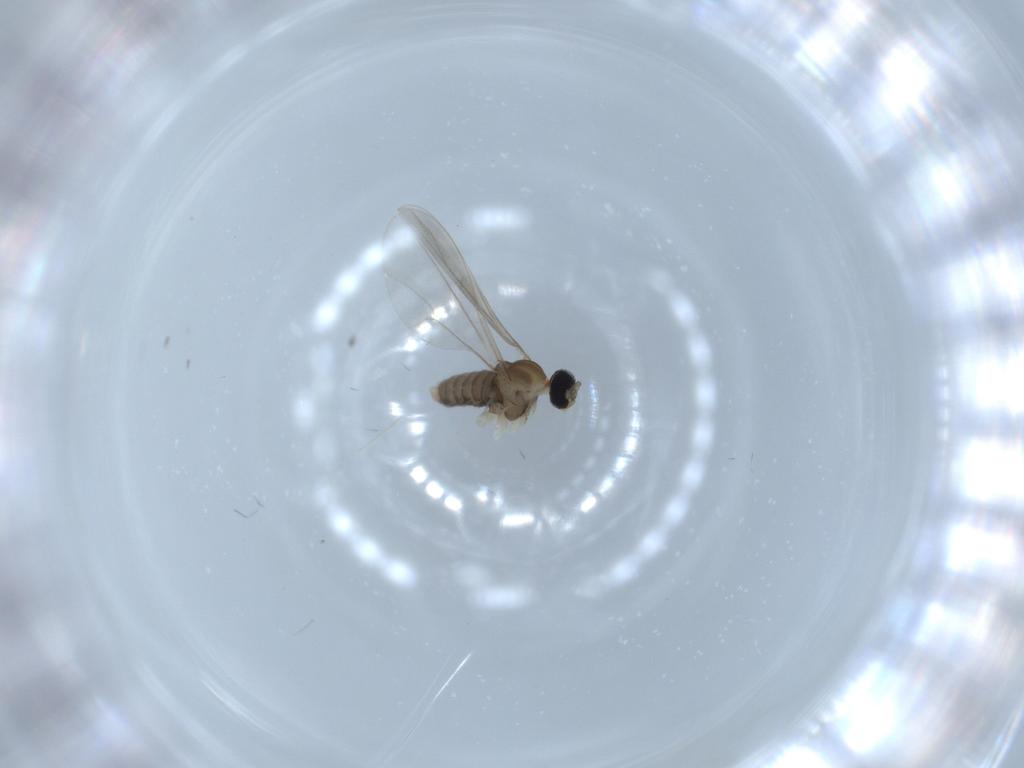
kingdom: Animalia
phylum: Arthropoda
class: Insecta
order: Diptera
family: Cecidomyiidae
